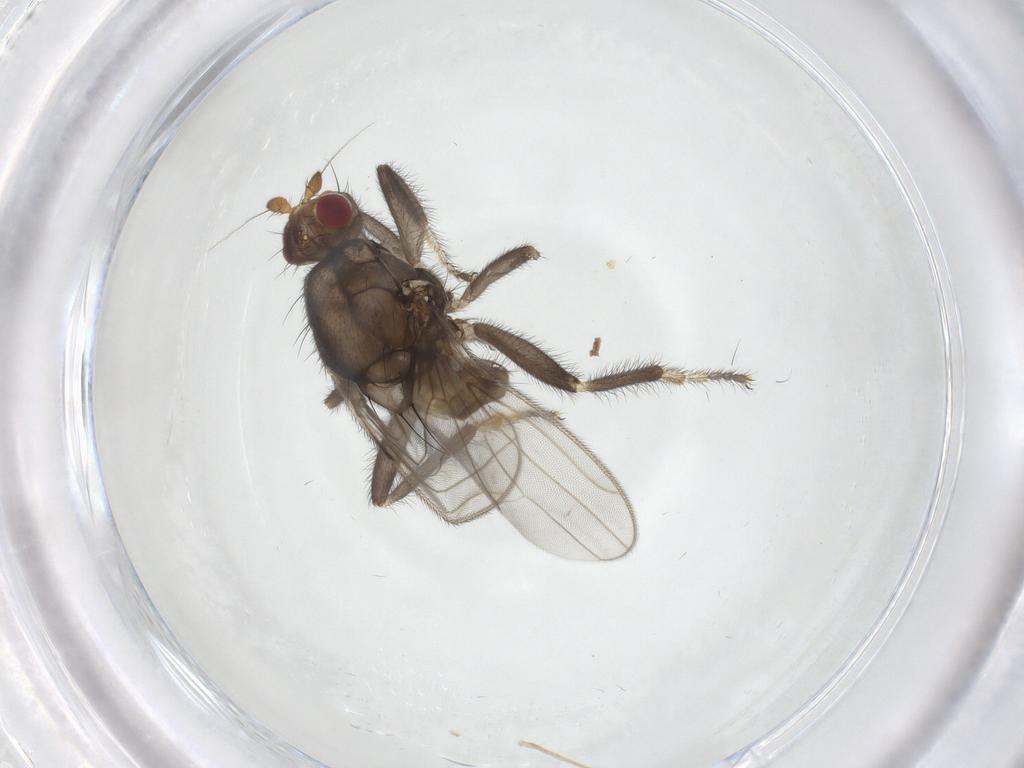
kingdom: Animalia
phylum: Arthropoda
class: Insecta
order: Diptera
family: Sphaeroceridae
